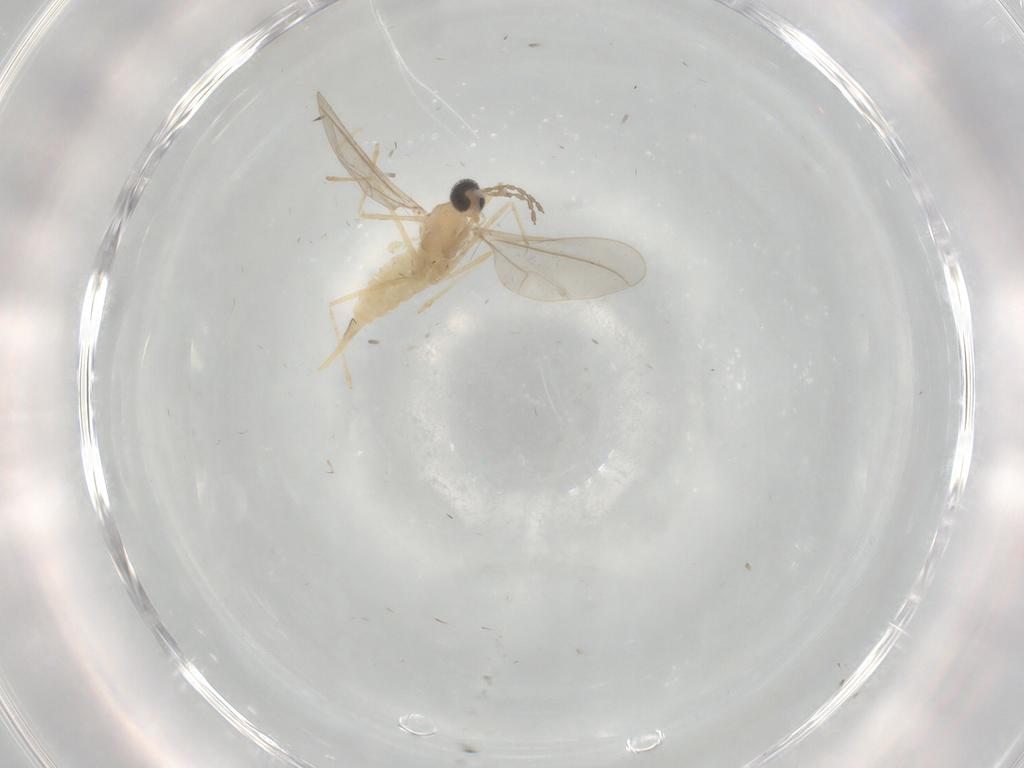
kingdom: Animalia
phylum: Arthropoda
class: Insecta
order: Diptera
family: Cecidomyiidae
